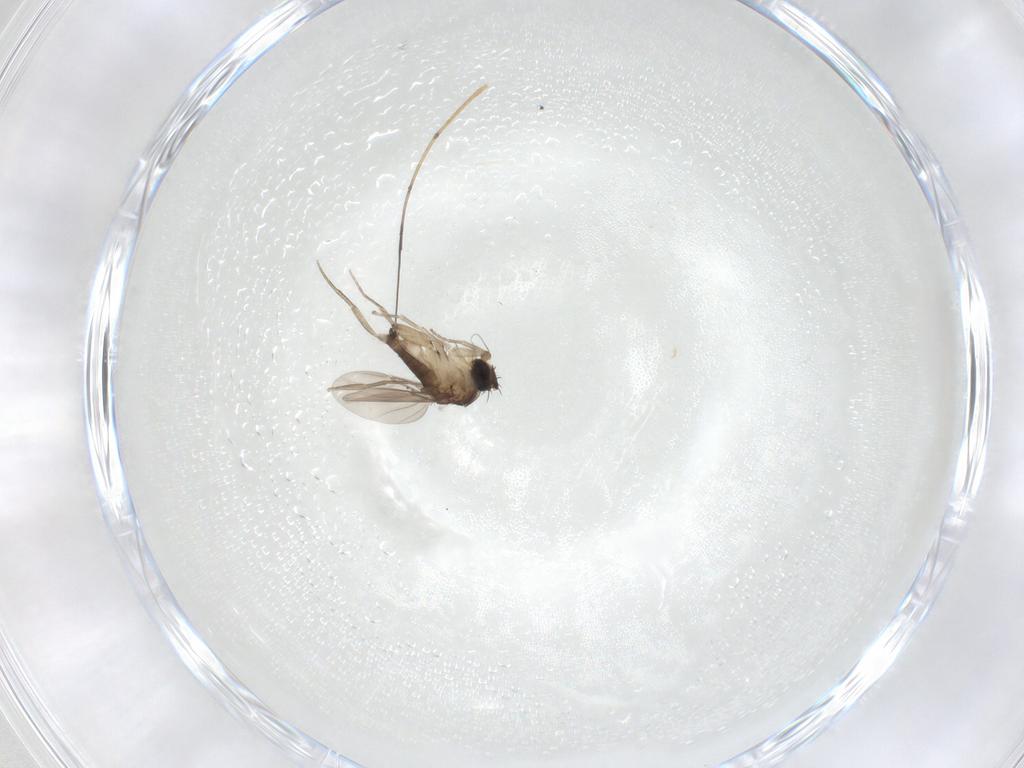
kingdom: Animalia
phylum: Arthropoda
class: Insecta
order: Diptera
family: Phoridae
